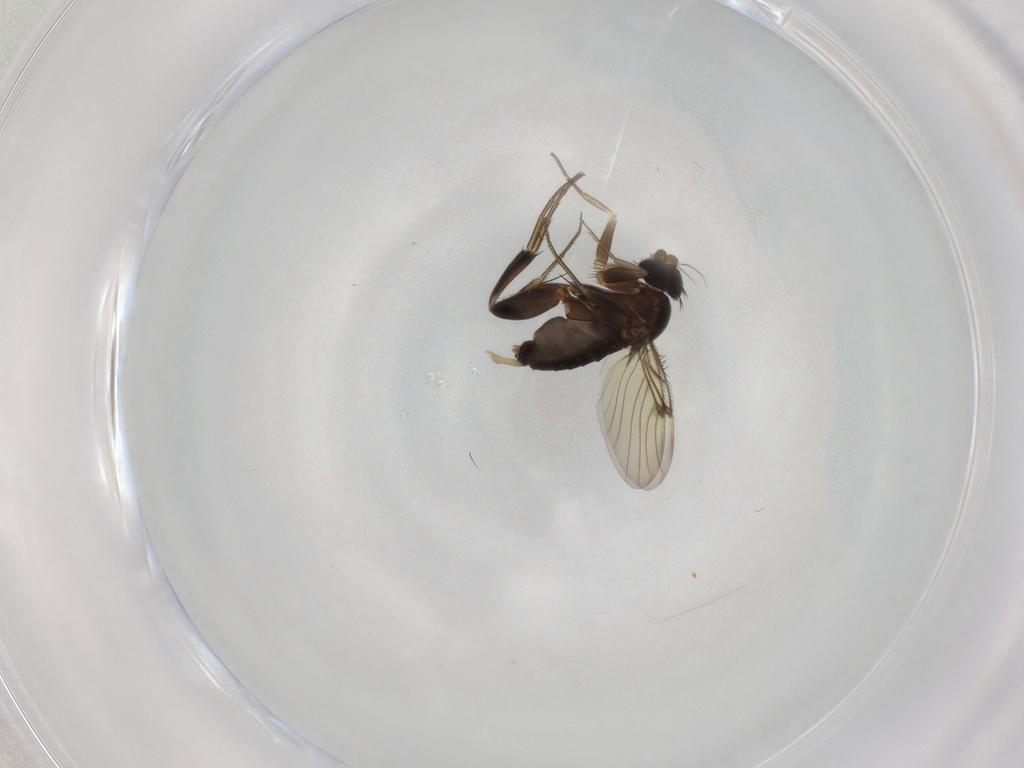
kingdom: Animalia
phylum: Arthropoda
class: Insecta
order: Diptera
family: Phoridae
